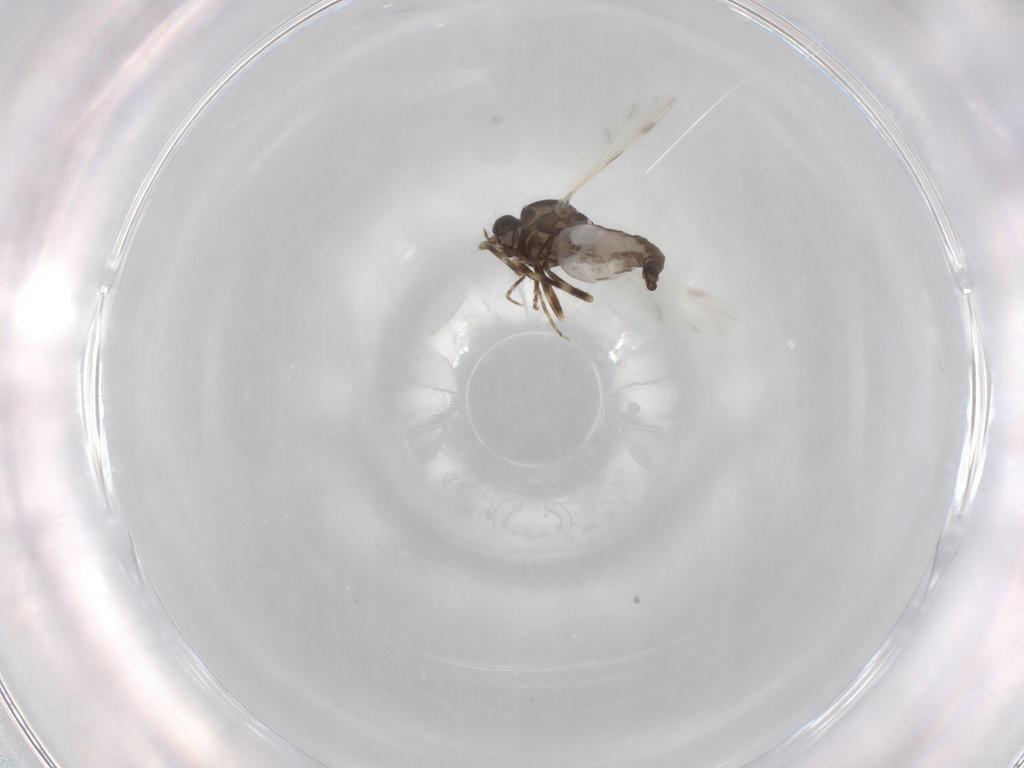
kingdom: Animalia
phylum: Arthropoda
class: Insecta
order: Diptera
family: Ceratopogonidae
